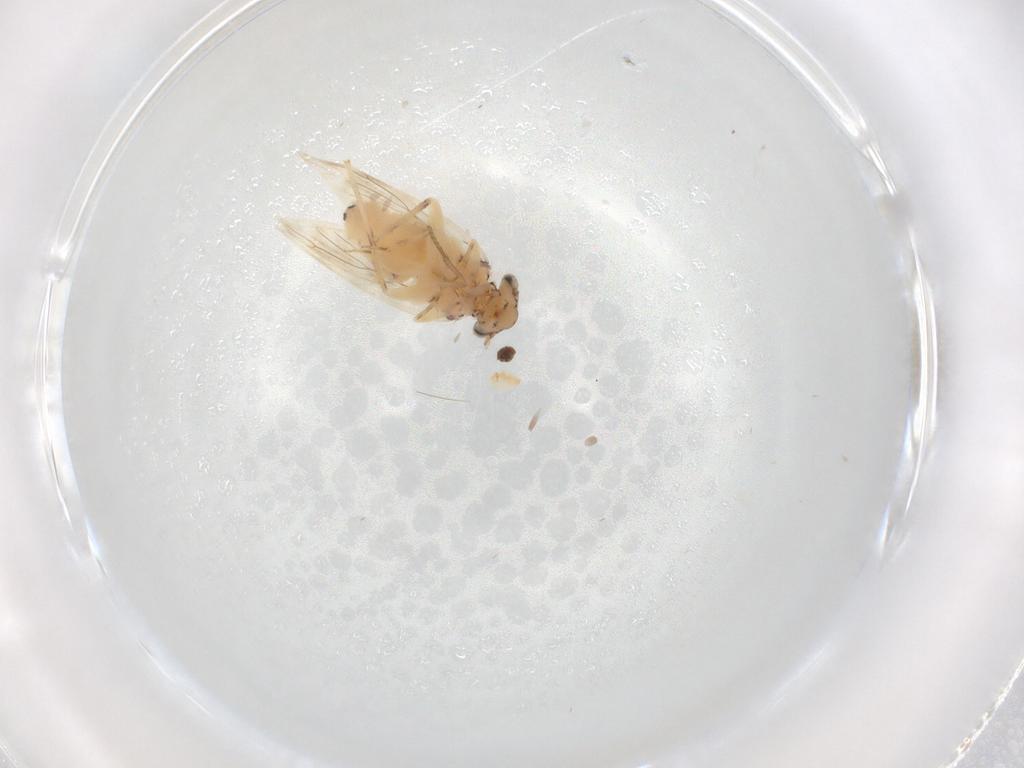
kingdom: Animalia
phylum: Arthropoda
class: Insecta
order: Psocodea
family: Lepidopsocidae
